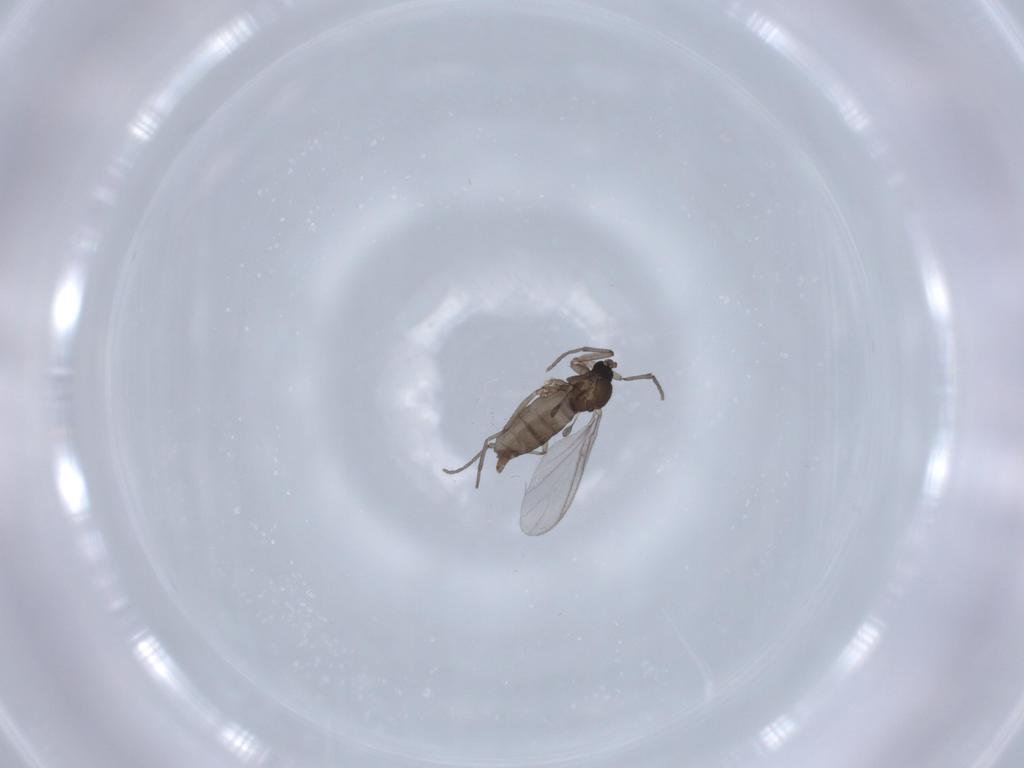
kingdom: Animalia
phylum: Arthropoda
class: Insecta
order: Diptera
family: Sciaridae
